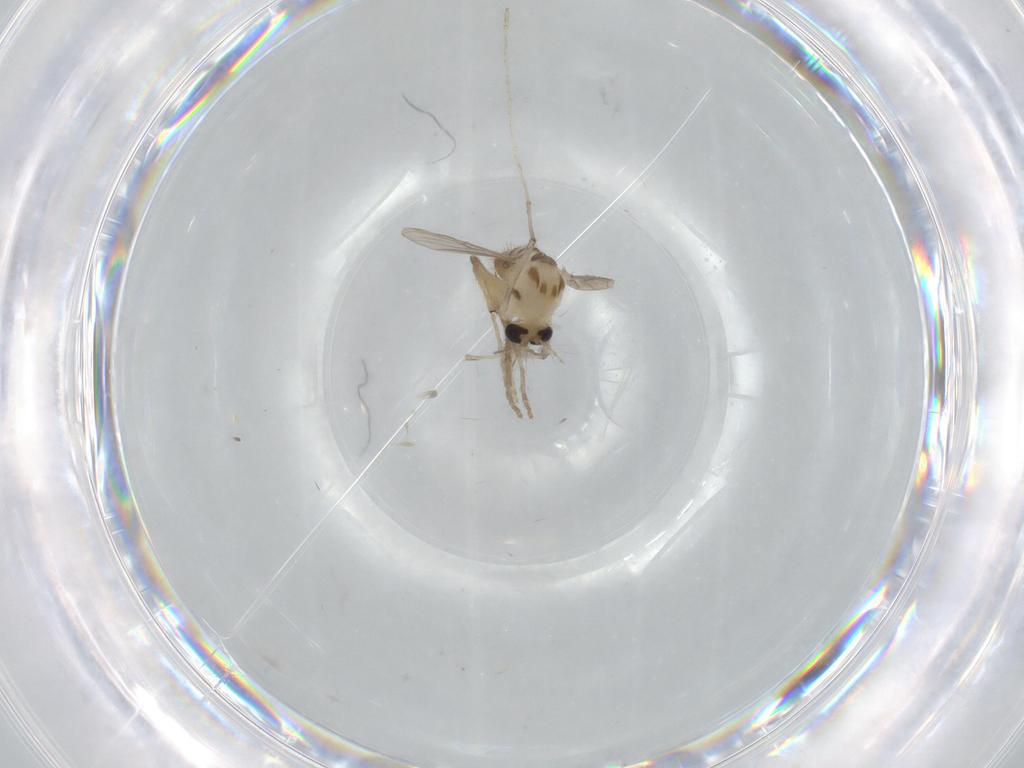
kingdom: Animalia
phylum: Arthropoda
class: Insecta
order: Diptera
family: Chironomidae
